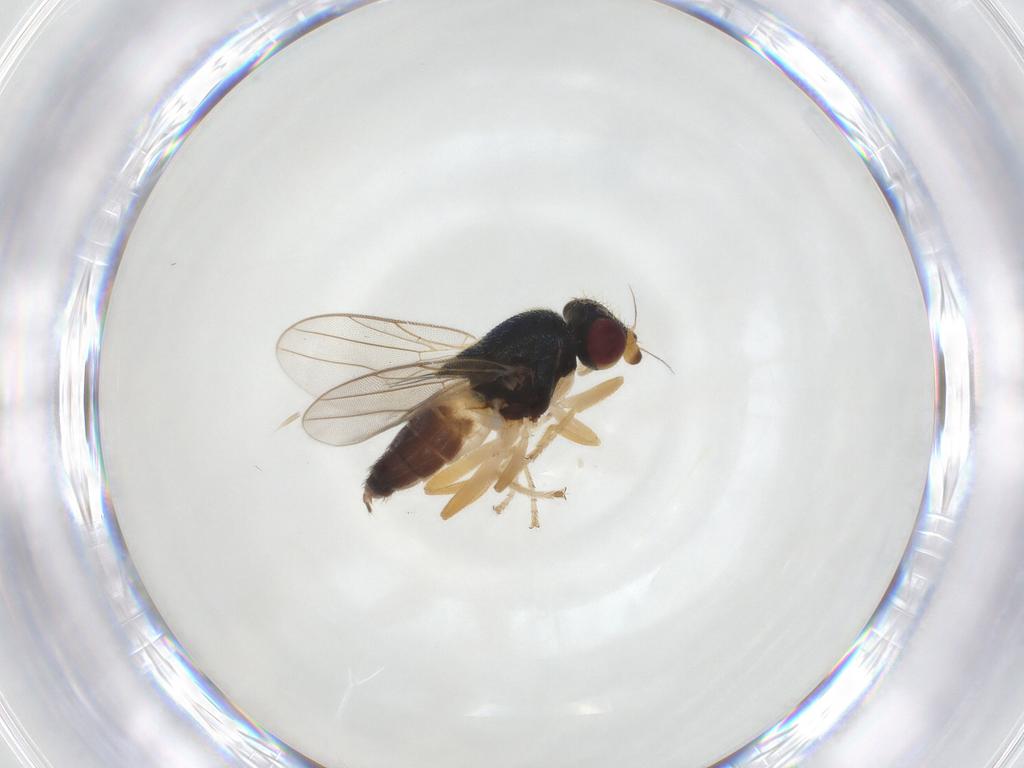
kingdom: Animalia
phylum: Arthropoda
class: Insecta
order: Diptera
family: Chloropidae
